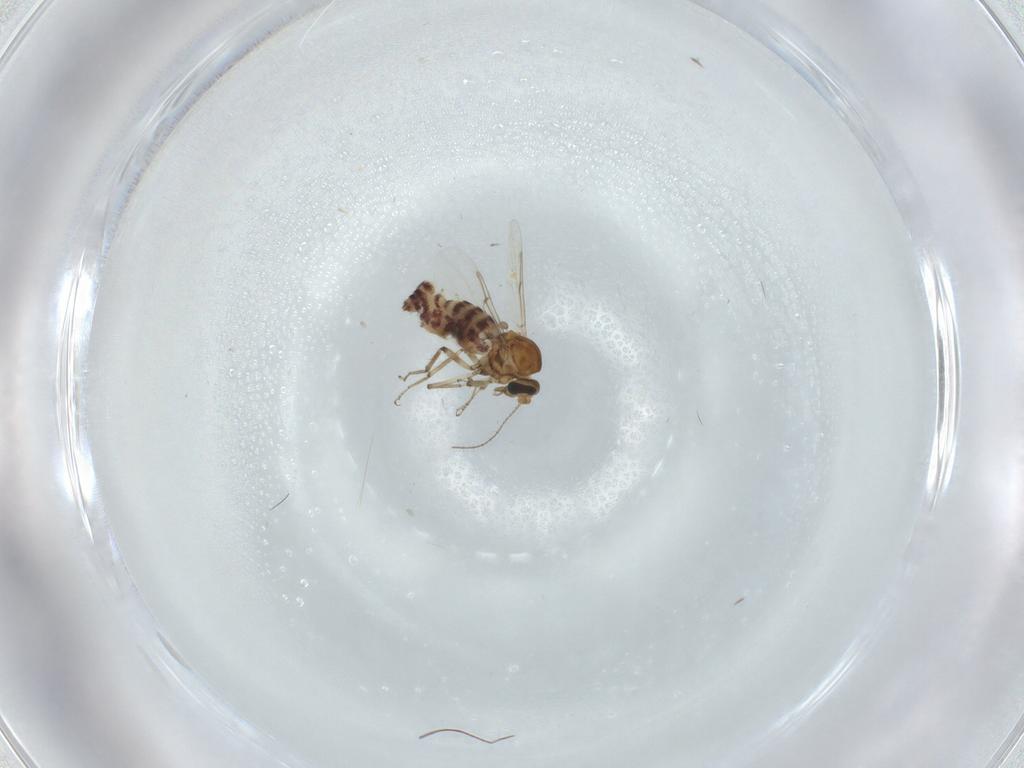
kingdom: Animalia
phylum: Arthropoda
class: Insecta
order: Diptera
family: Ceratopogonidae
